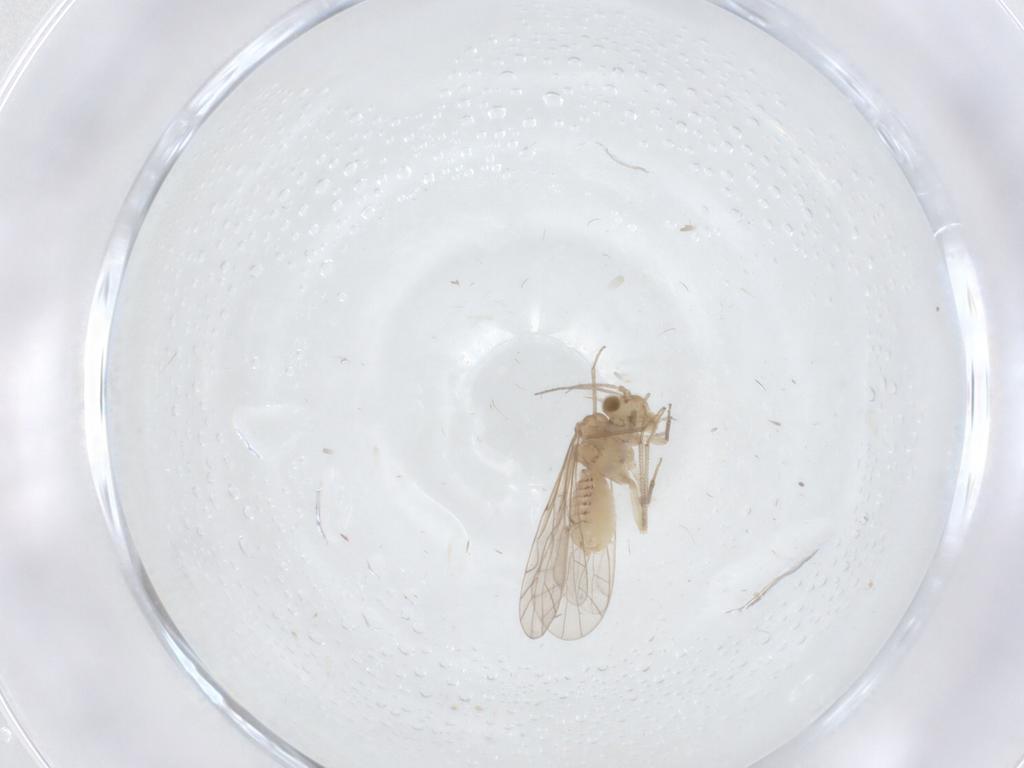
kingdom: Animalia
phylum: Arthropoda
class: Insecta
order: Psocodea
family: Lachesillidae
